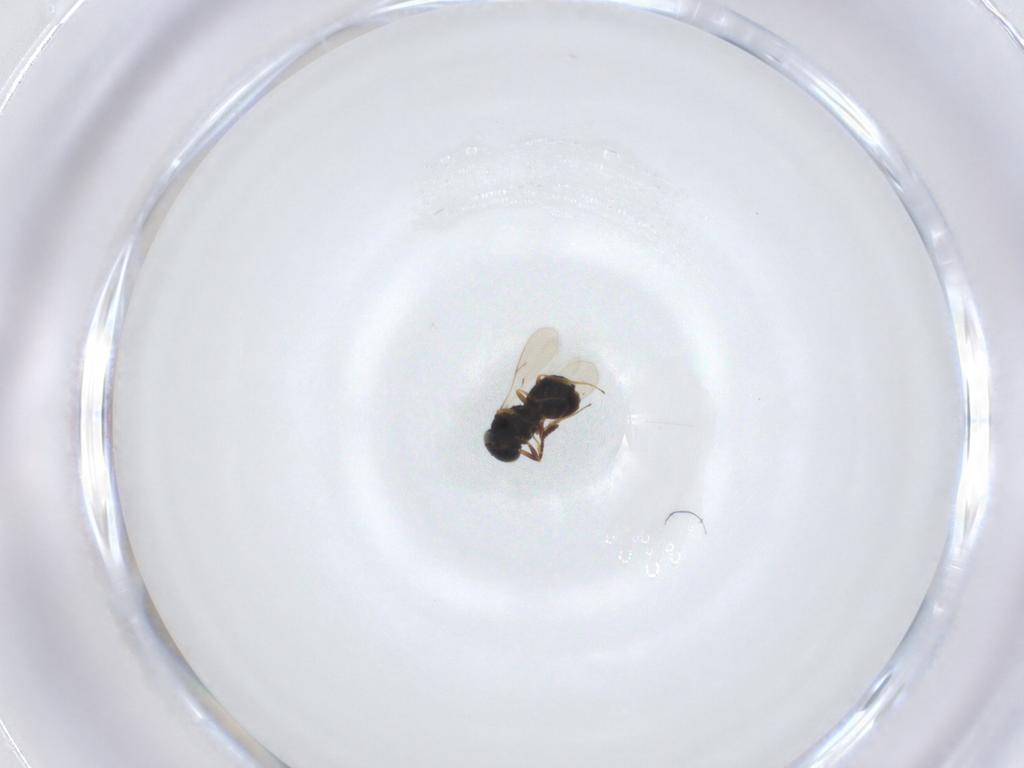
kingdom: Animalia
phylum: Arthropoda
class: Insecta
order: Hymenoptera
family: Scelionidae
